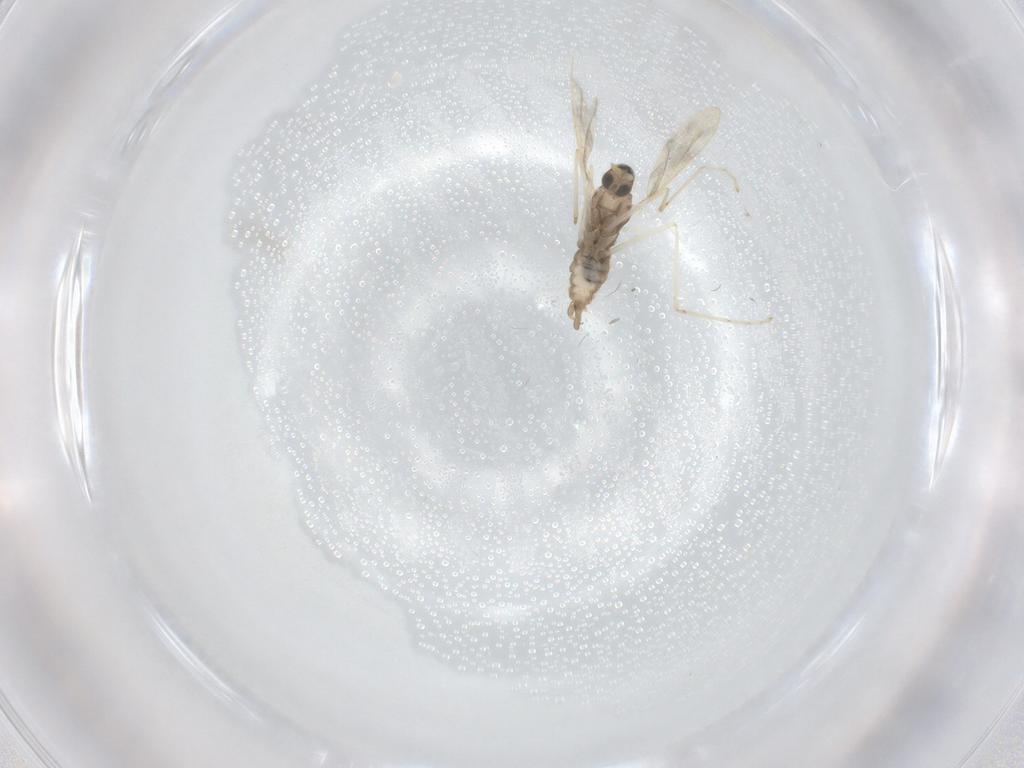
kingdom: Animalia
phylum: Arthropoda
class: Insecta
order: Diptera
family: Cecidomyiidae
